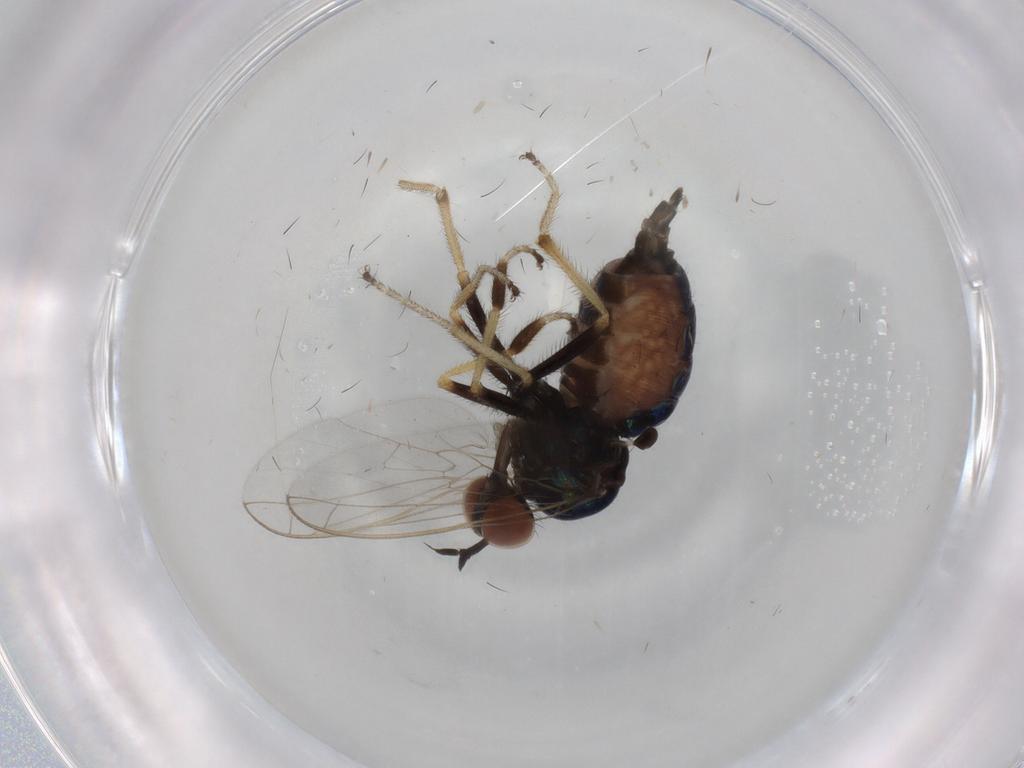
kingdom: Animalia
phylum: Arthropoda
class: Insecta
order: Diptera
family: Empididae
